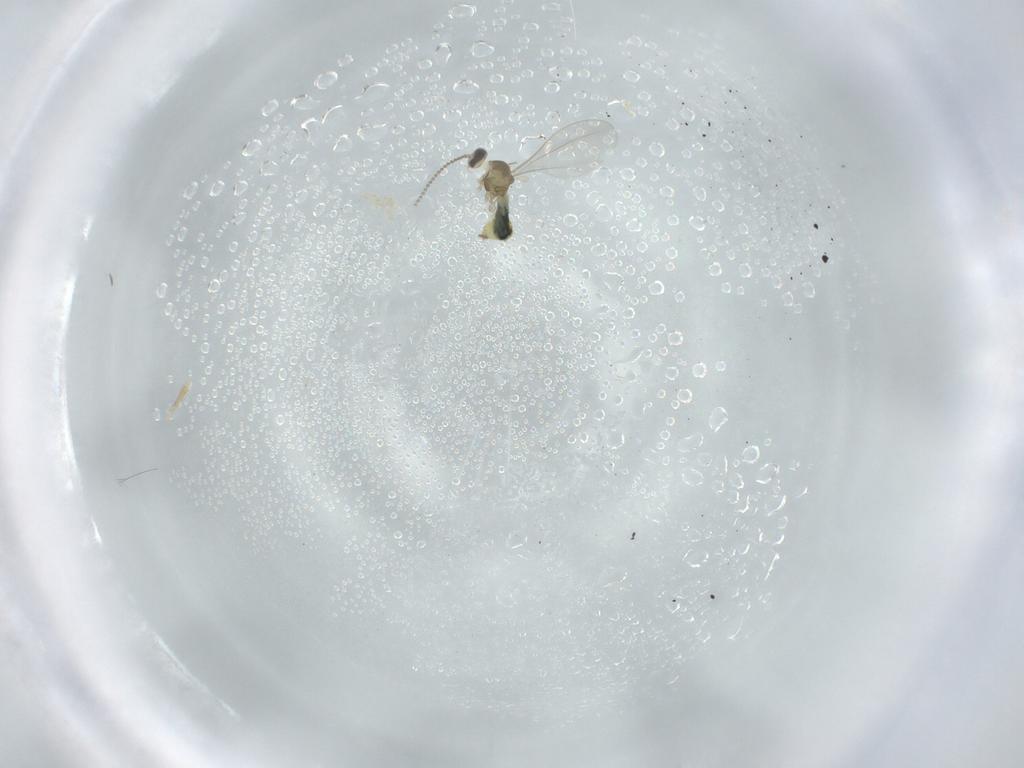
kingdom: Animalia
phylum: Arthropoda
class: Insecta
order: Diptera
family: Cecidomyiidae
